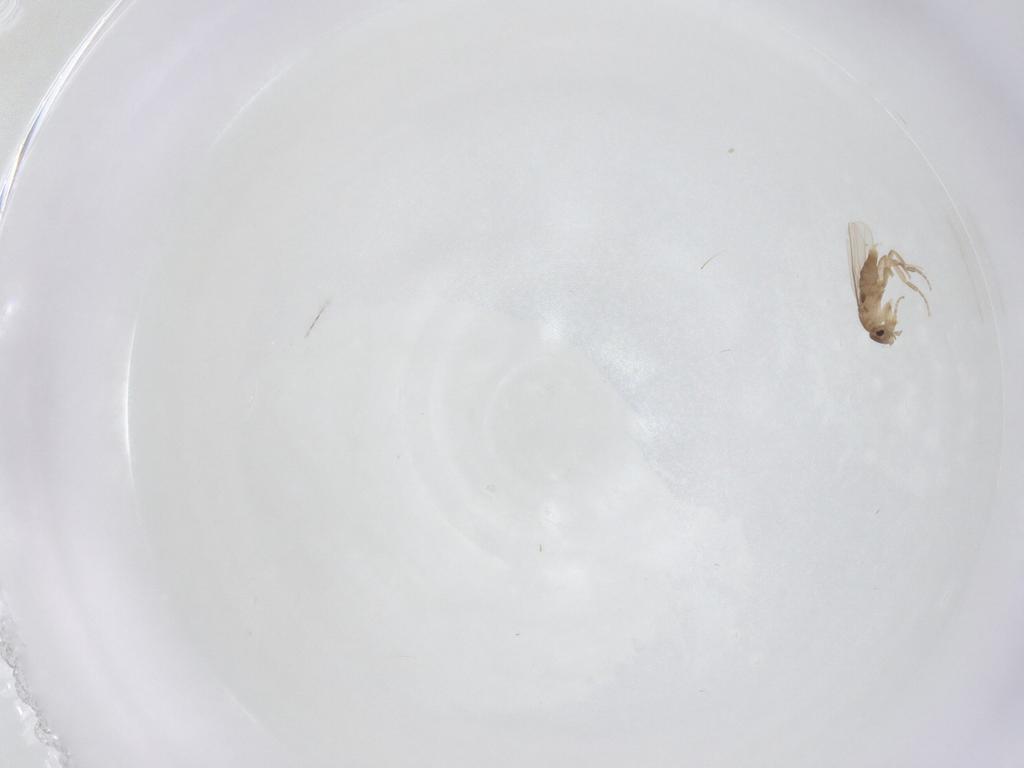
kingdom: Animalia
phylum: Arthropoda
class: Insecta
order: Diptera
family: Phoridae
